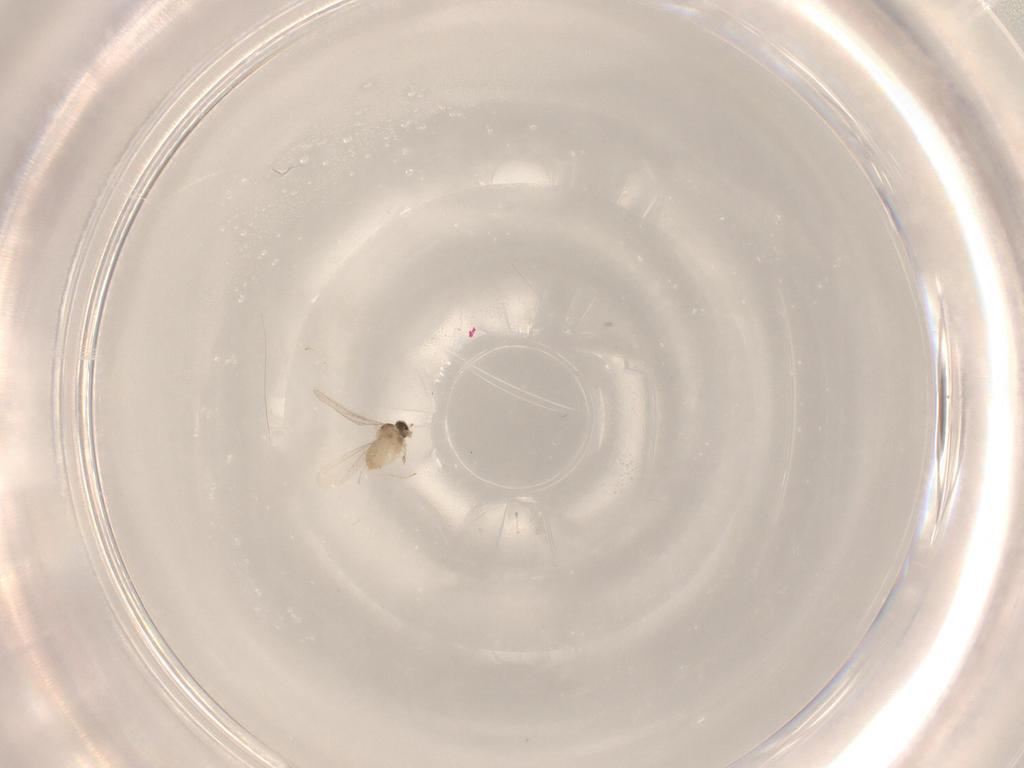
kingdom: Animalia
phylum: Arthropoda
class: Insecta
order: Diptera
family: Cecidomyiidae
